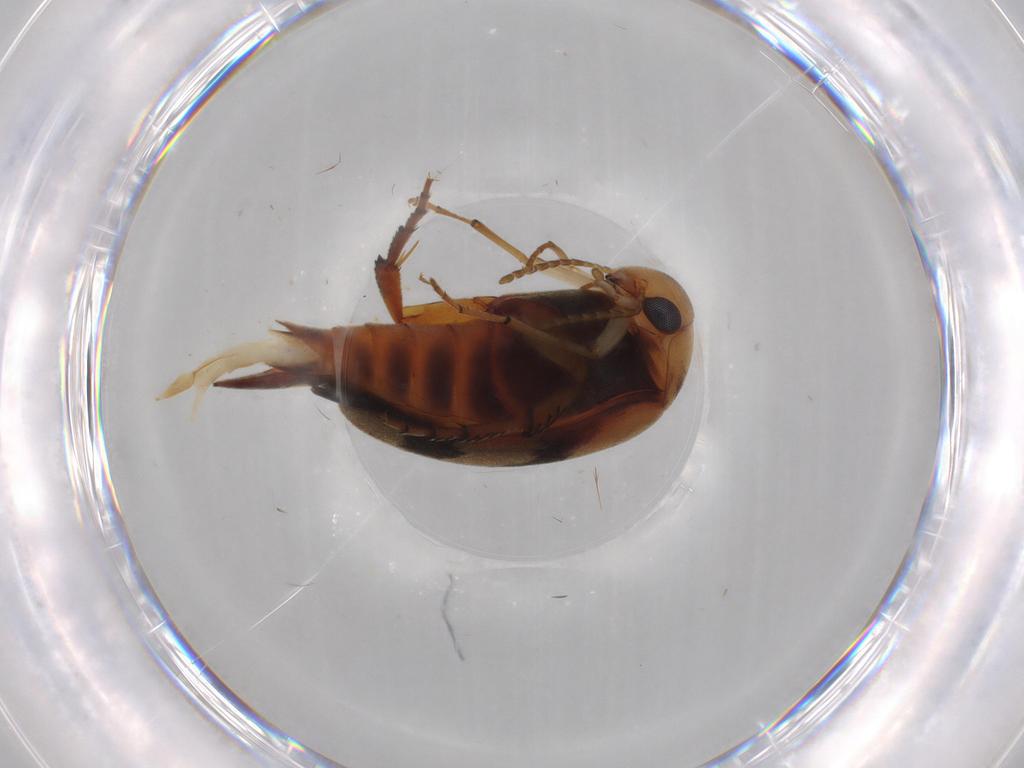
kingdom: Animalia
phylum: Arthropoda
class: Insecta
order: Coleoptera
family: Mordellidae
